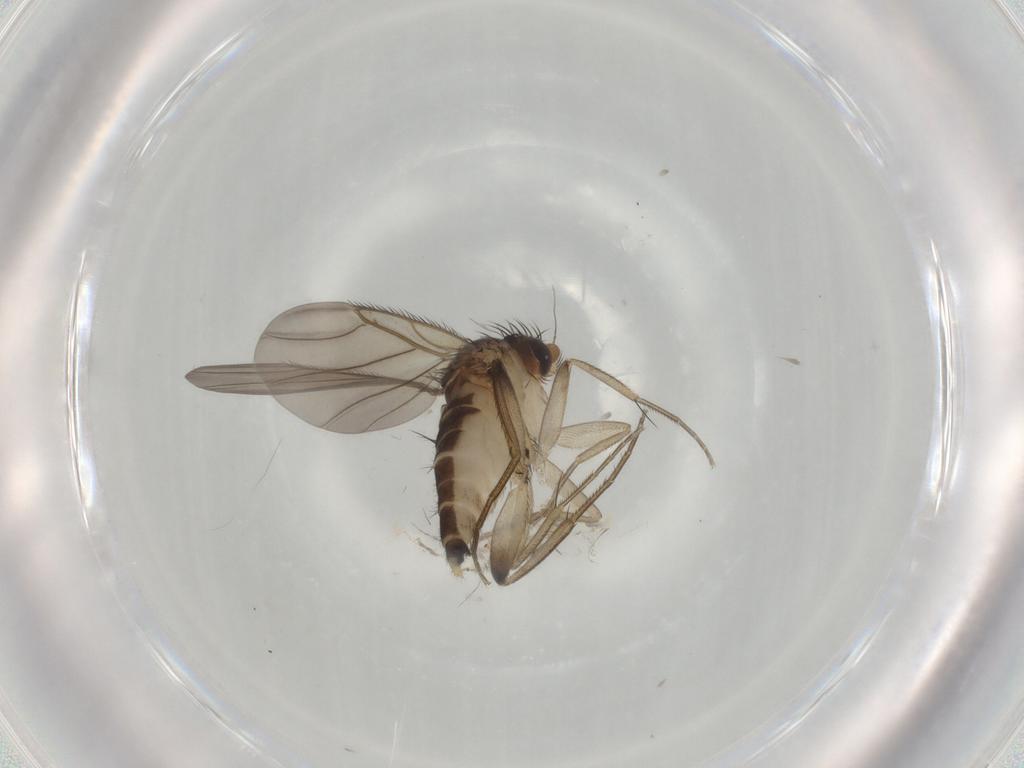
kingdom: Animalia
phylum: Arthropoda
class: Insecta
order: Diptera
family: Phoridae
